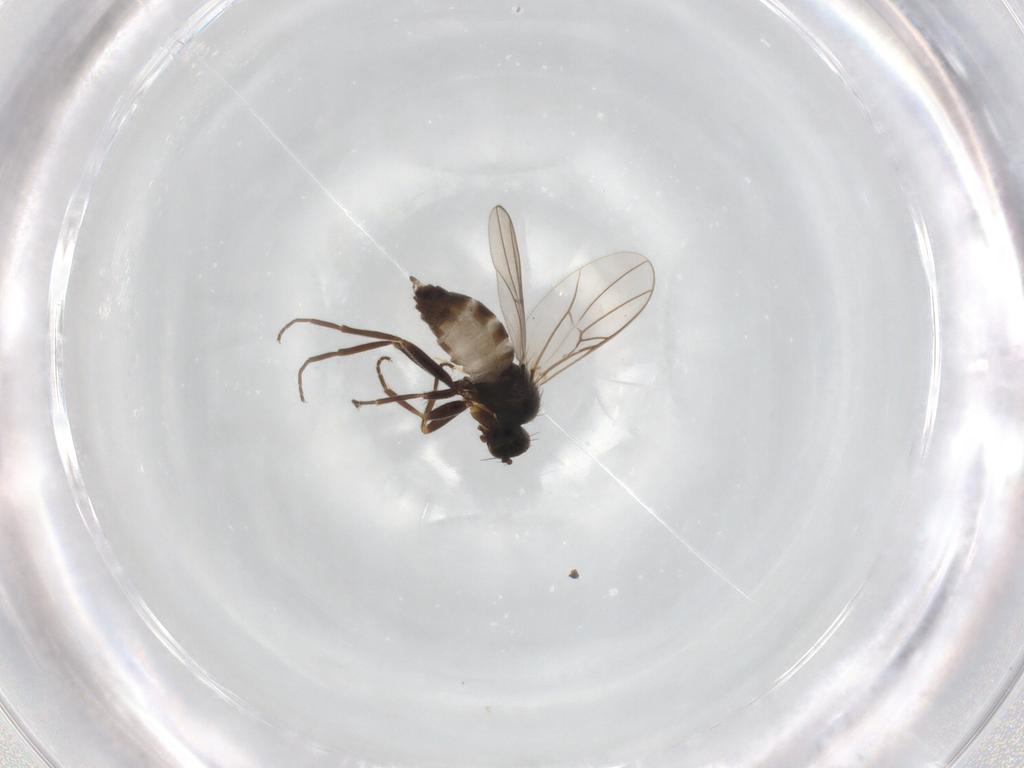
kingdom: Animalia
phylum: Arthropoda
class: Insecta
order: Diptera
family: Hybotidae
